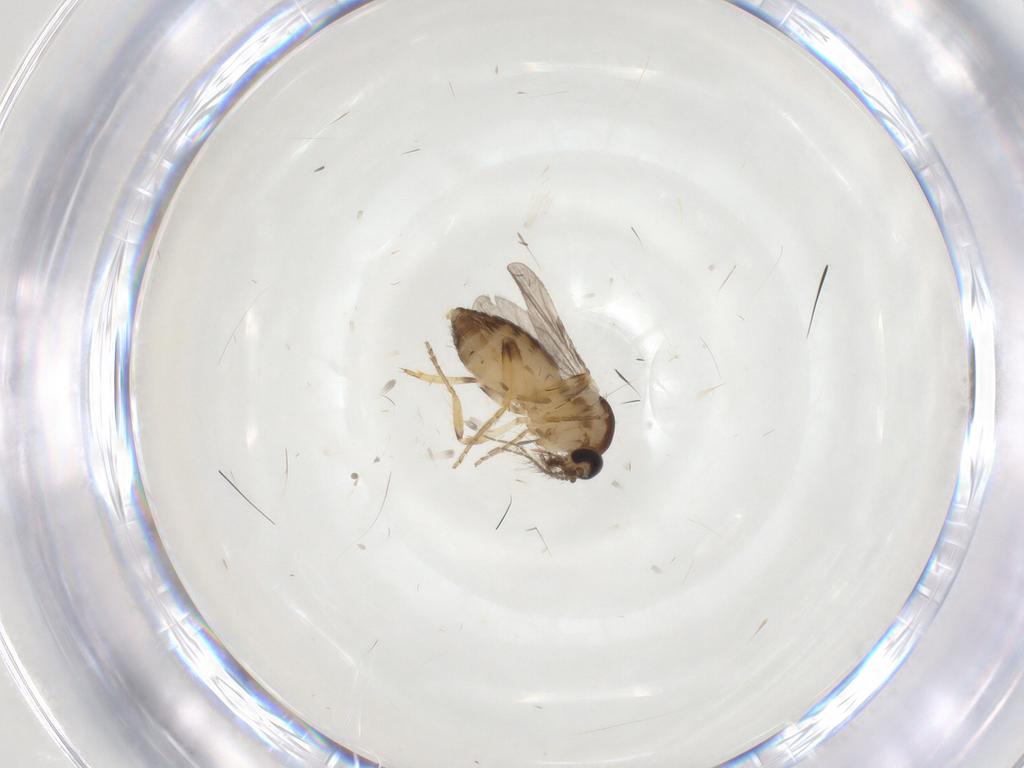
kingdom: Animalia
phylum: Arthropoda
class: Insecta
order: Diptera
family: Ceratopogonidae
